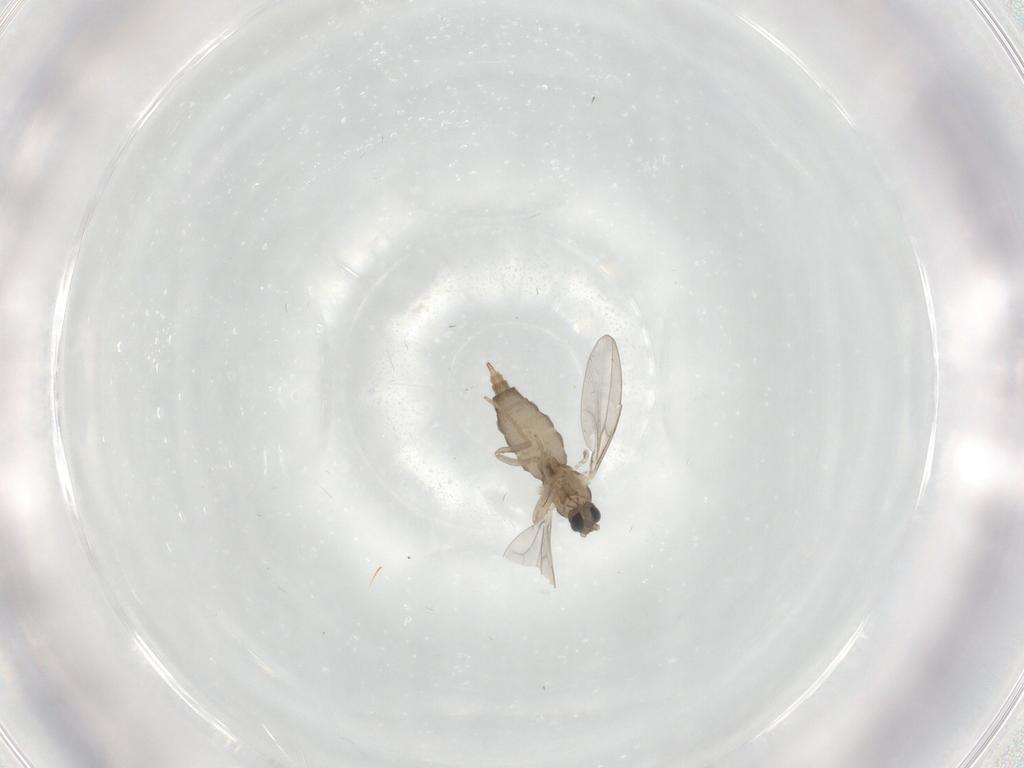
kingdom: Animalia
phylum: Arthropoda
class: Insecta
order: Diptera
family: Cecidomyiidae
